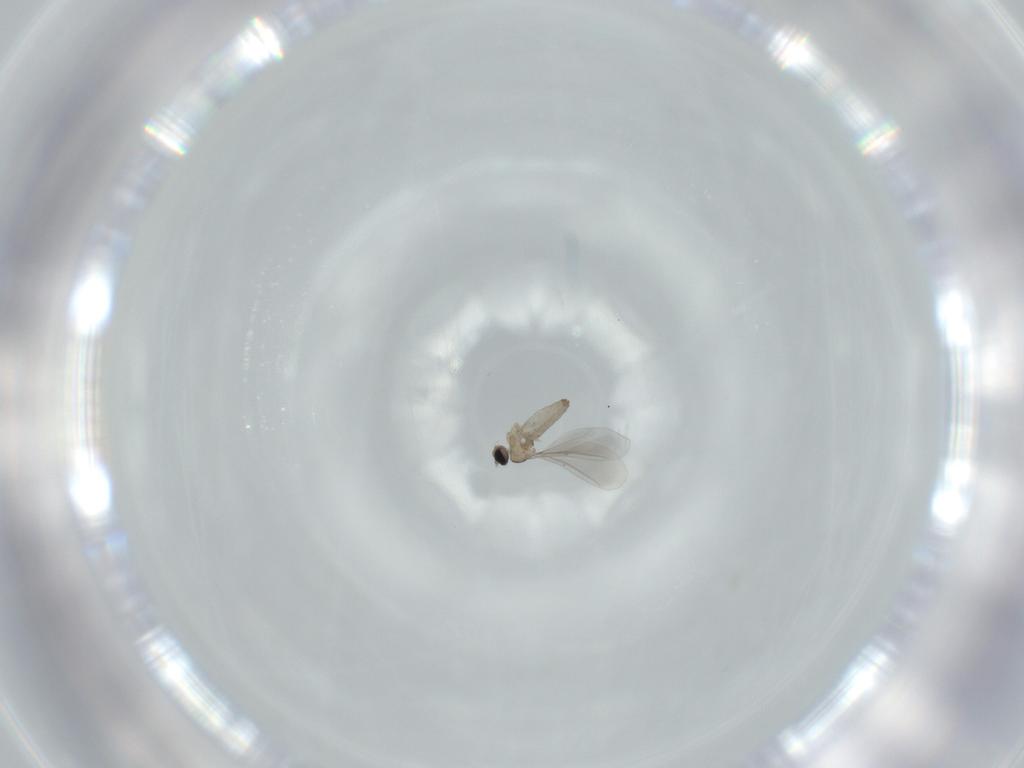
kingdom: Animalia
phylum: Arthropoda
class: Insecta
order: Diptera
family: Cecidomyiidae
